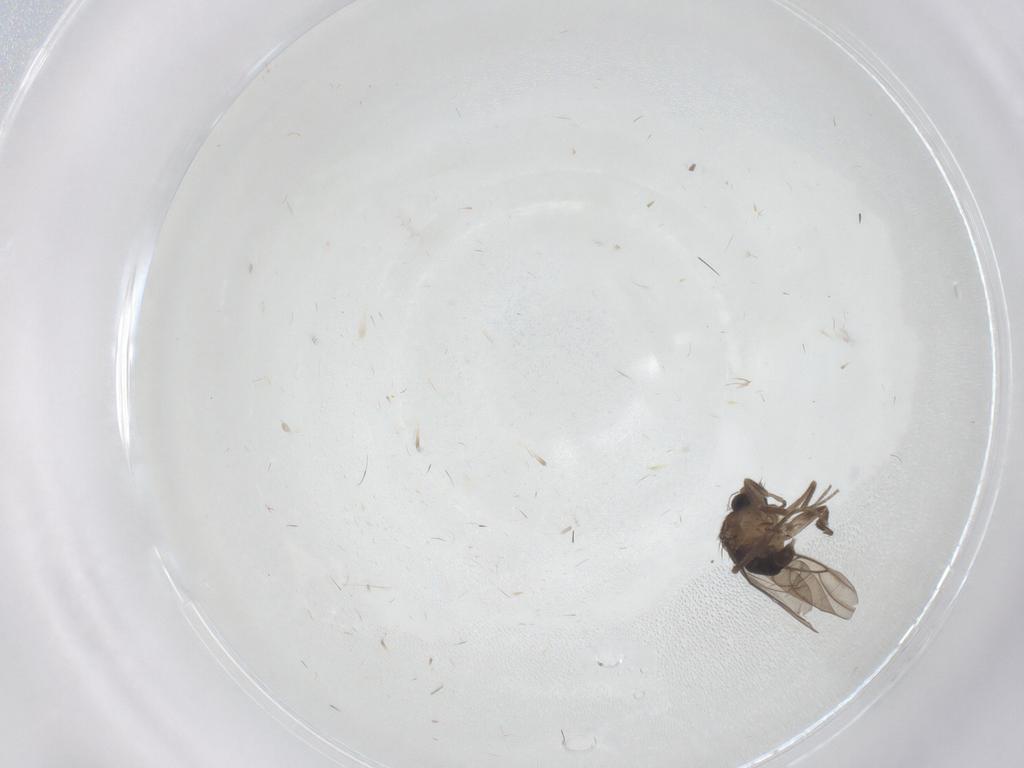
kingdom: Animalia
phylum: Arthropoda
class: Insecta
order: Diptera
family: Phoridae
